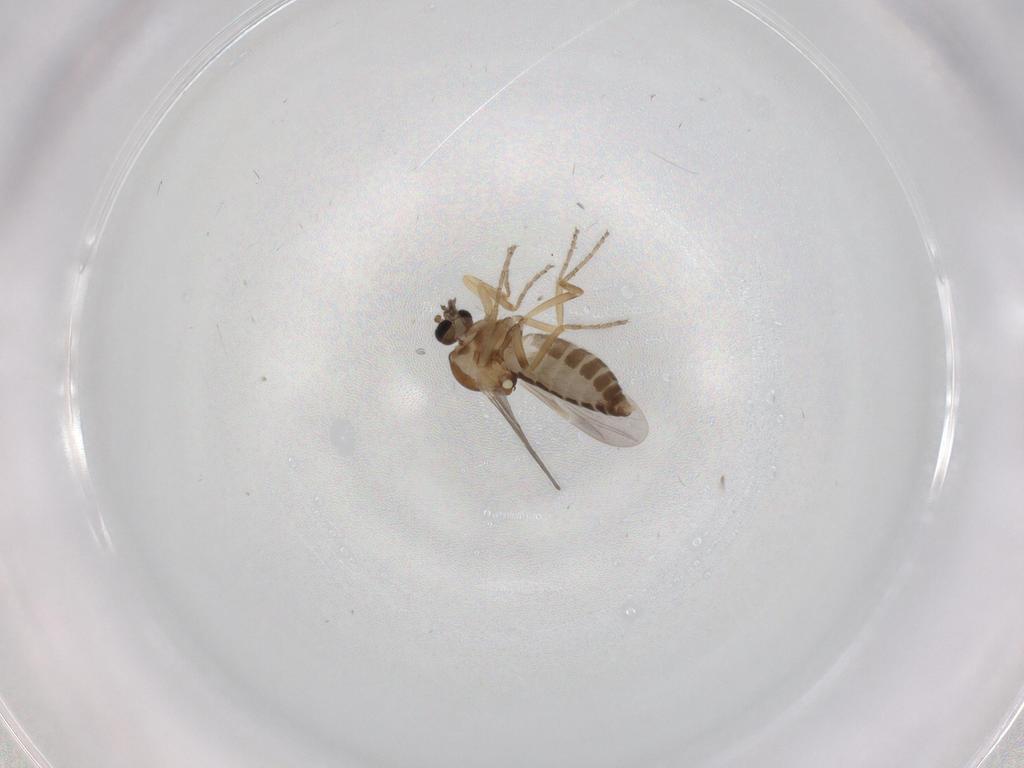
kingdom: Animalia
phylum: Arthropoda
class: Insecta
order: Diptera
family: Ceratopogonidae
